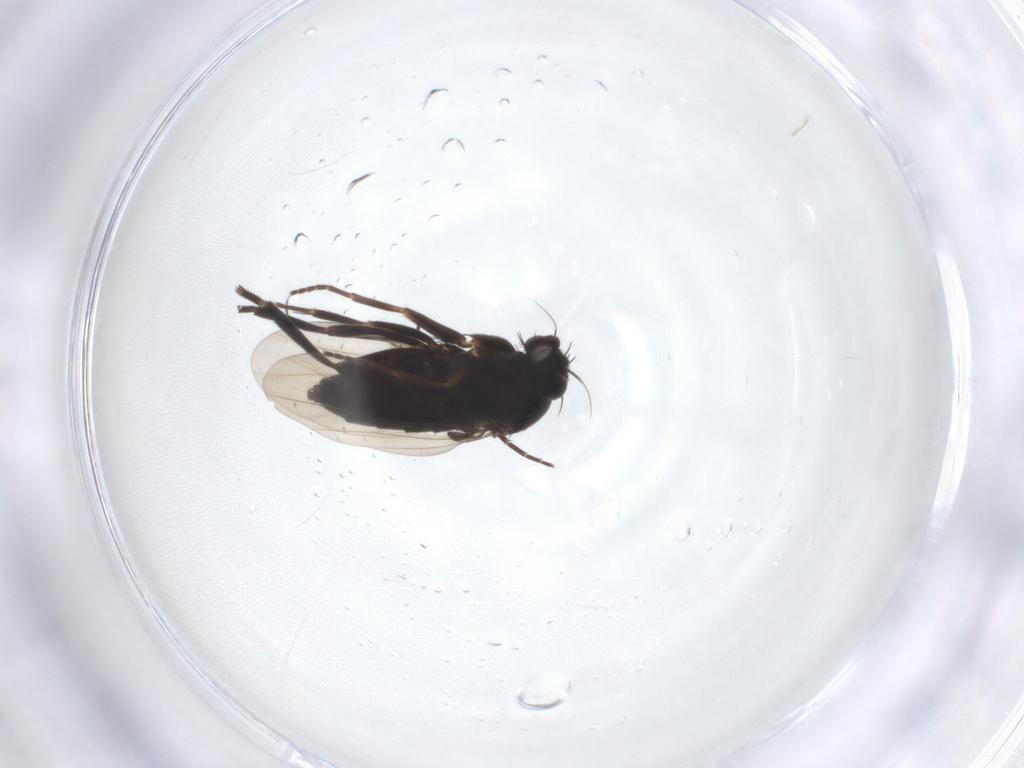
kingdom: Animalia
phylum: Arthropoda
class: Insecta
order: Diptera
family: Phoridae
